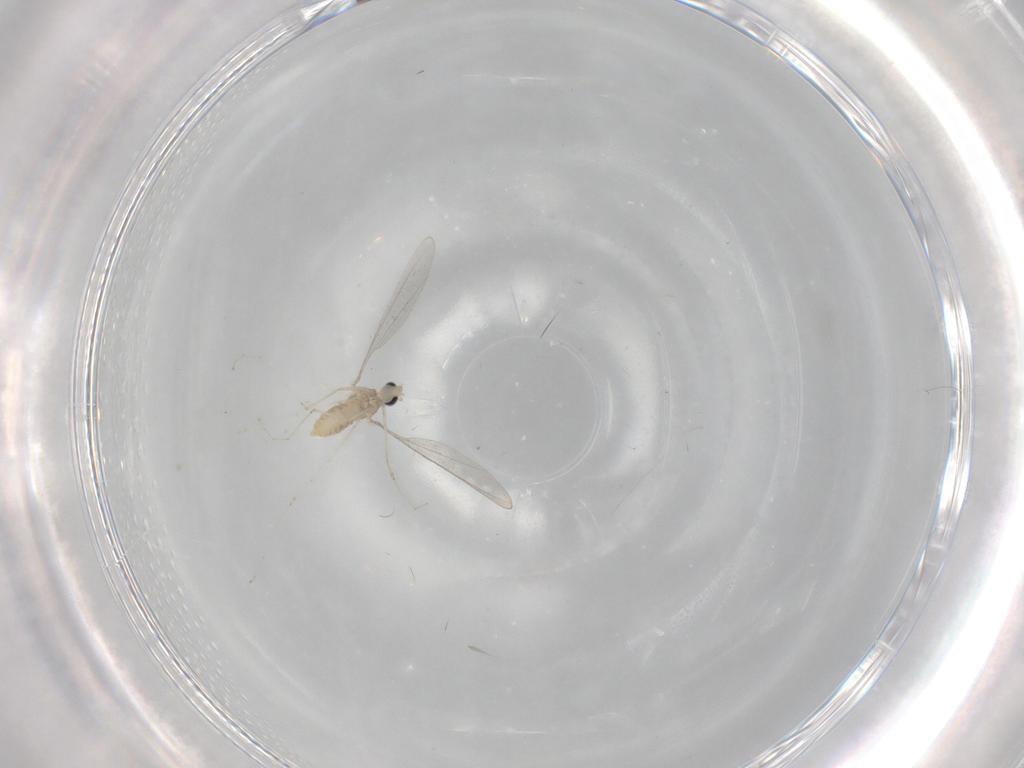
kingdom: Animalia
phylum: Arthropoda
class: Insecta
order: Diptera
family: Cecidomyiidae
